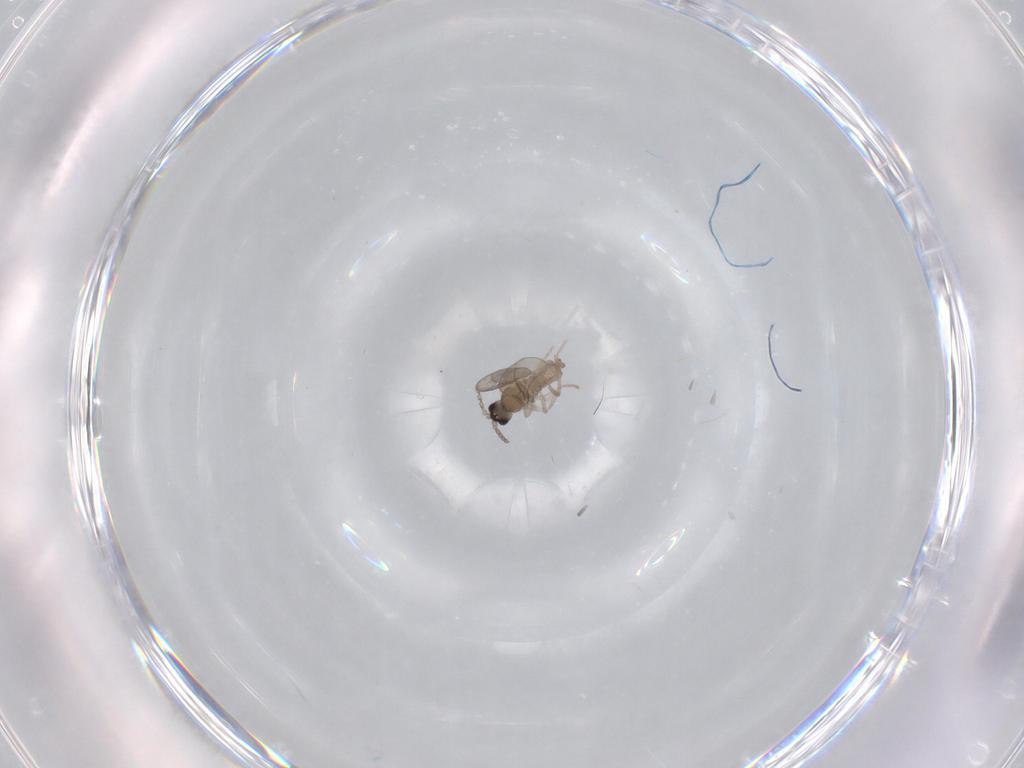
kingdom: Animalia
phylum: Arthropoda
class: Insecta
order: Diptera
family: Cecidomyiidae
